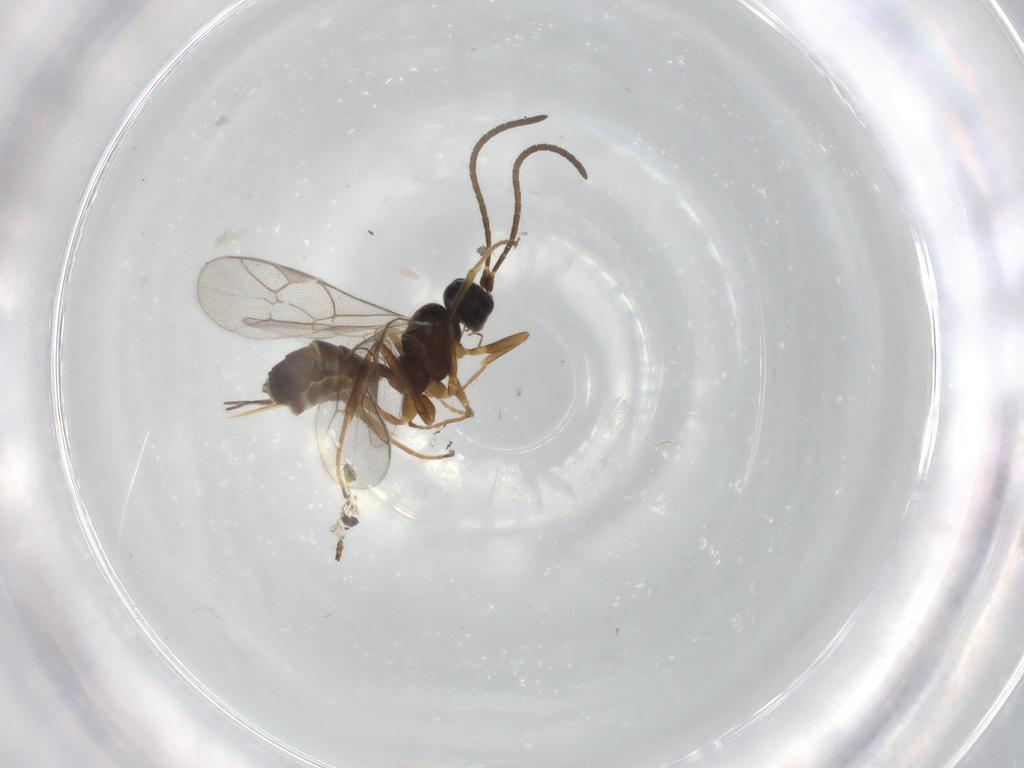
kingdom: Animalia
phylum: Arthropoda
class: Insecta
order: Hymenoptera
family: Ichneumonidae
